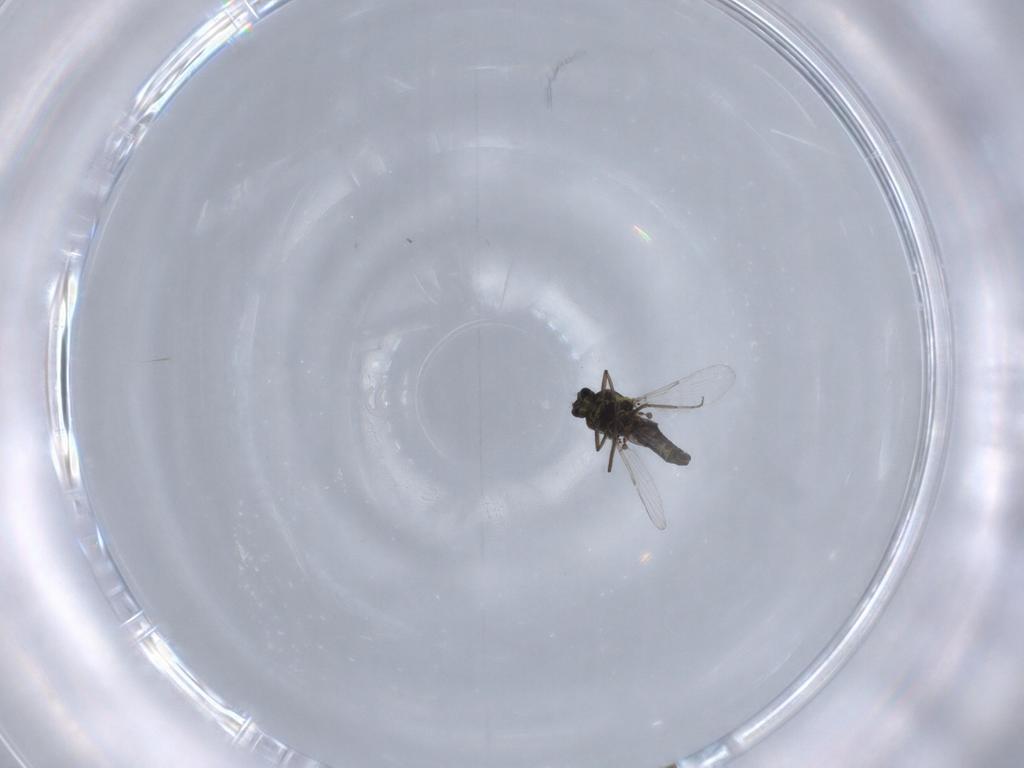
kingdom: Animalia
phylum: Arthropoda
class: Insecta
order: Diptera
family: Ceratopogonidae
